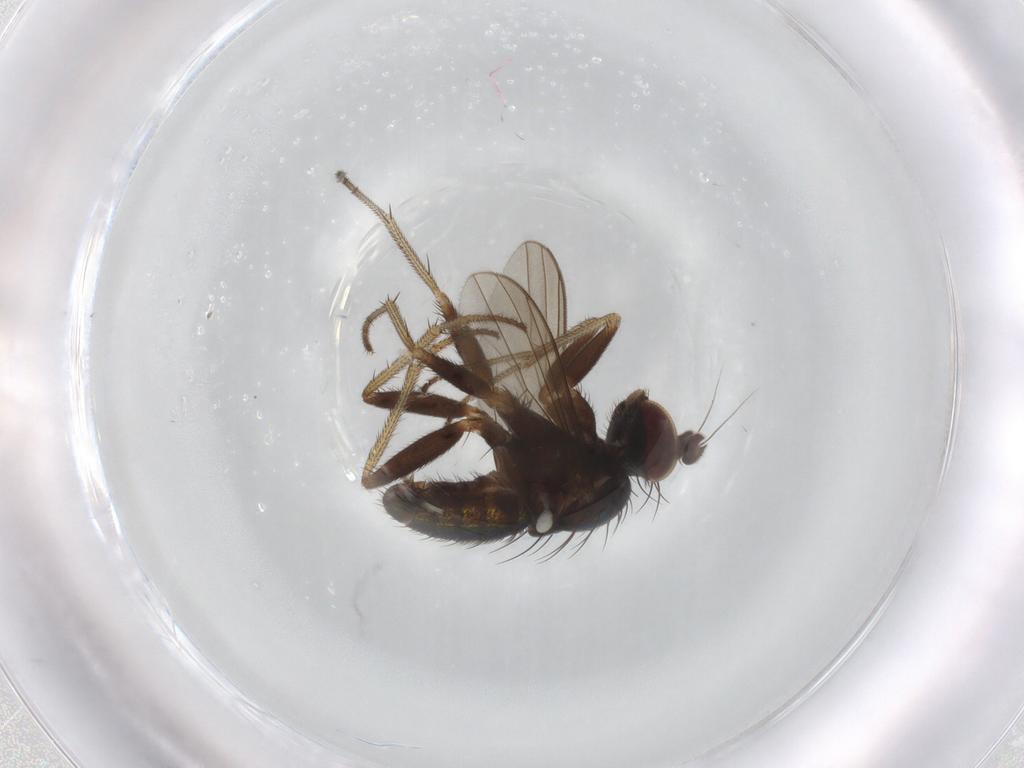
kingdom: Animalia
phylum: Arthropoda
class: Insecta
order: Diptera
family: Dolichopodidae
